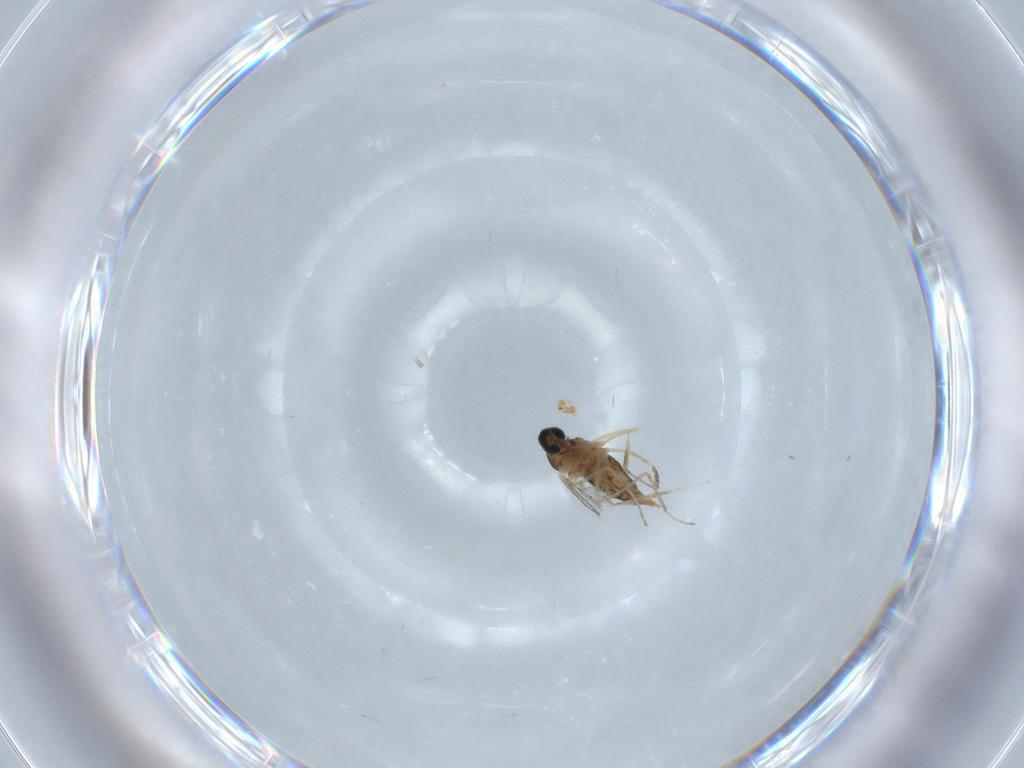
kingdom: Animalia
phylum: Arthropoda
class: Insecta
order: Diptera
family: Cecidomyiidae
